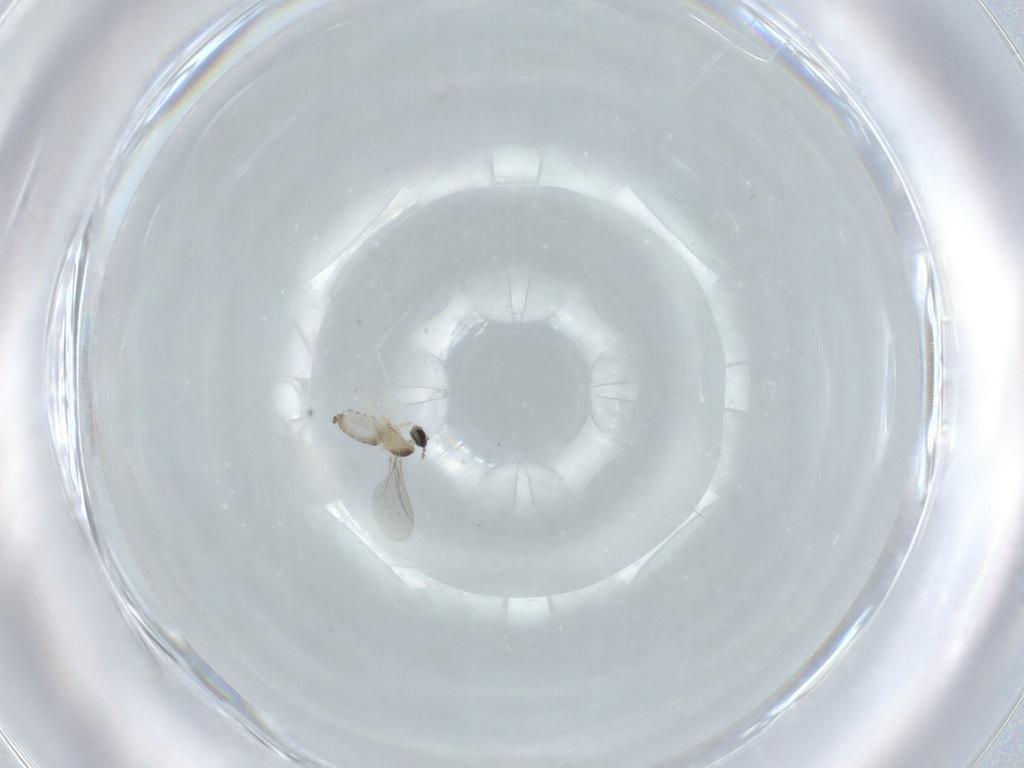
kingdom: Animalia
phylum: Arthropoda
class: Insecta
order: Diptera
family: Cecidomyiidae
